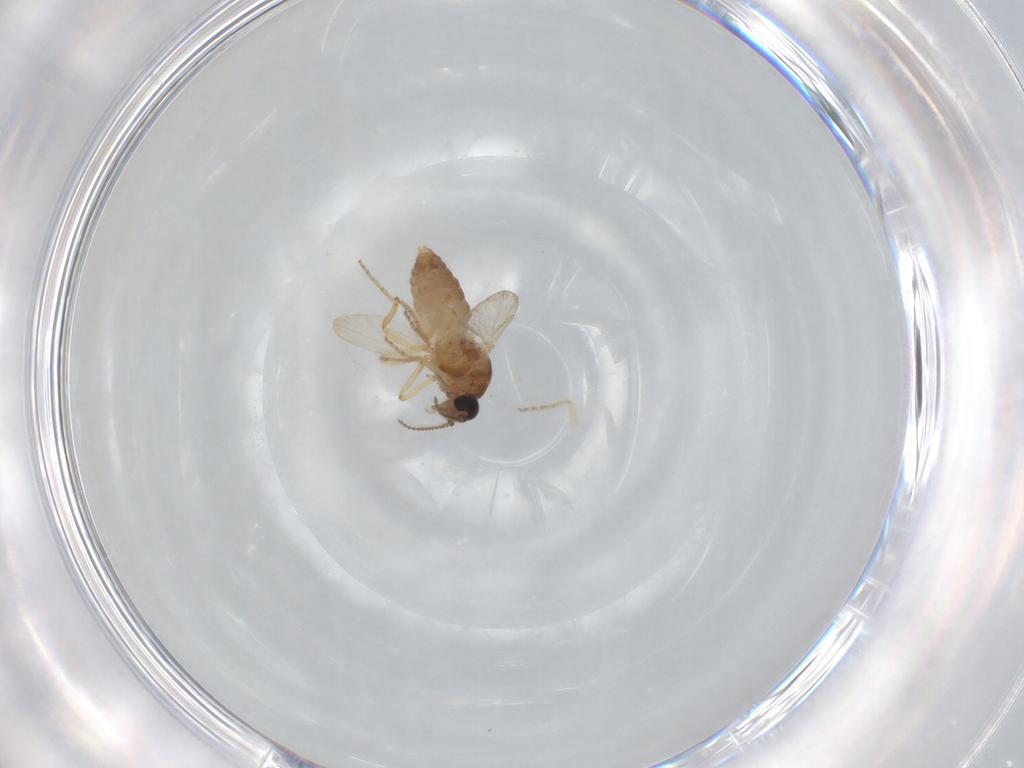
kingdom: Animalia
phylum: Arthropoda
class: Insecta
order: Diptera
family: Ceratopogonidae
